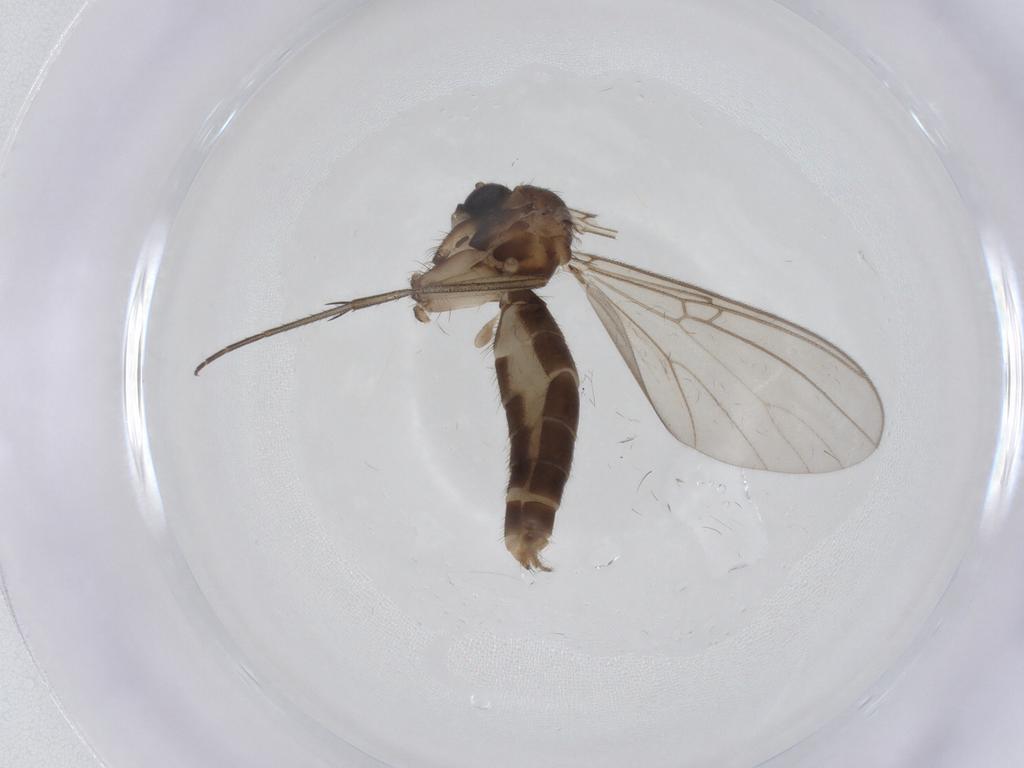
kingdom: Animalia
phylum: Arthropoda
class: Insecta
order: Diptera
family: Mycetophilidae
